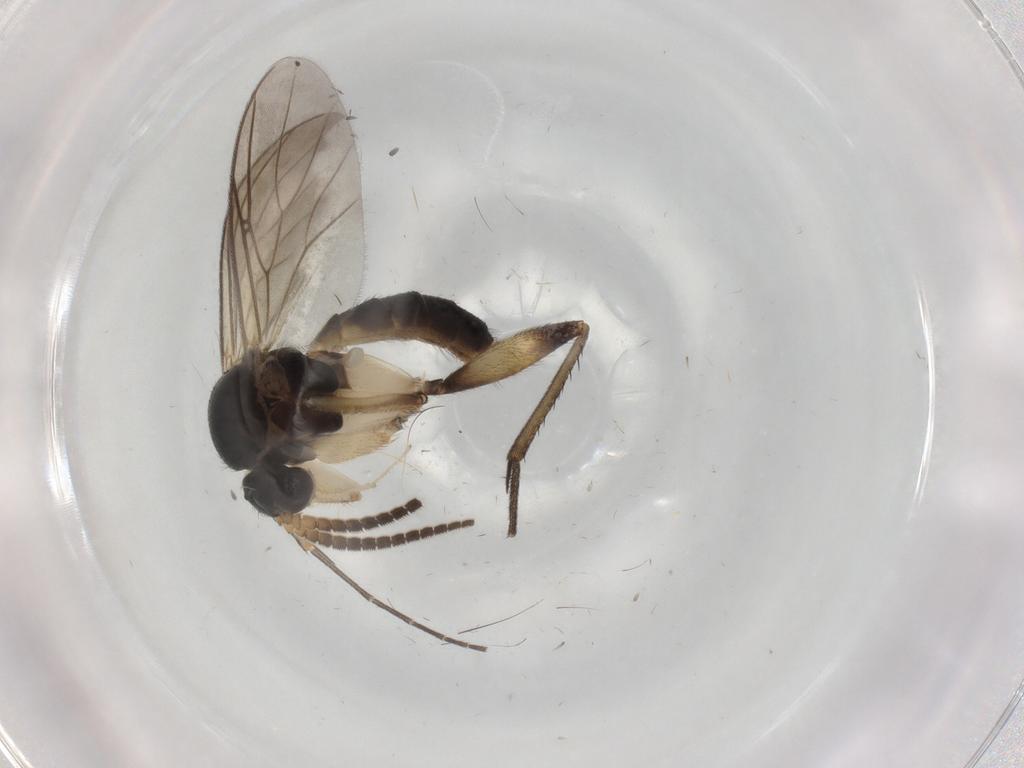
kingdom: Animalia
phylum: Arthropoda
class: Insecta
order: Diptera
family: Phoridae
